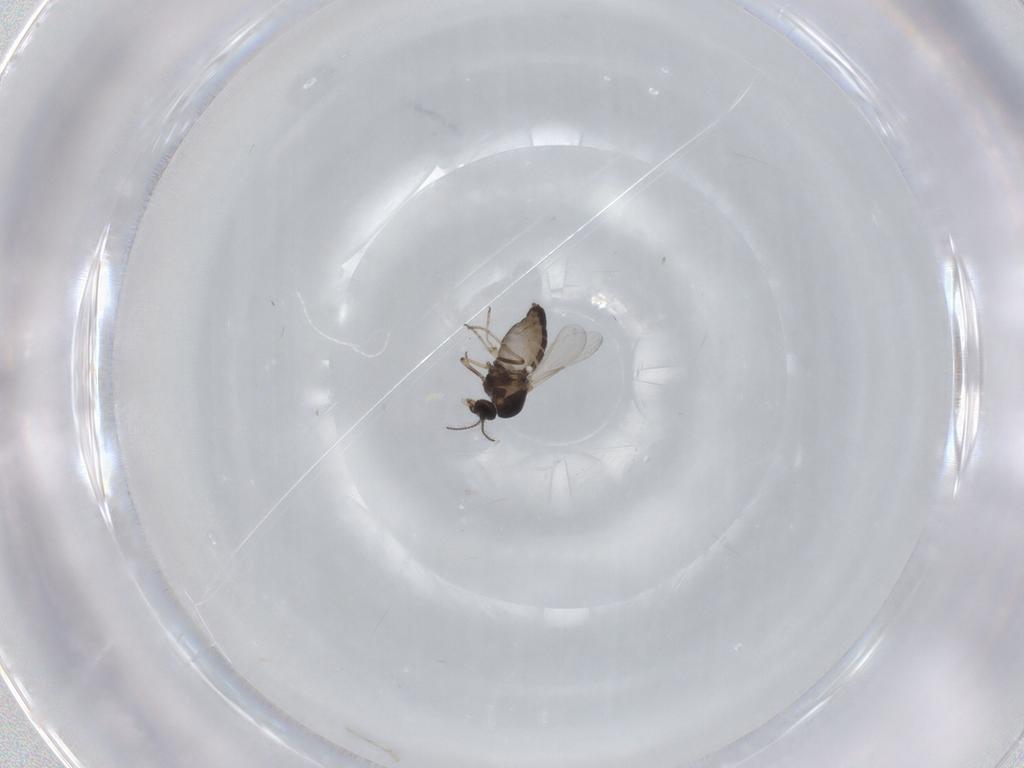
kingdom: Animalia
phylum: Arthropoda
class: Insecta
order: Diptera
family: Ceratopogonidae
